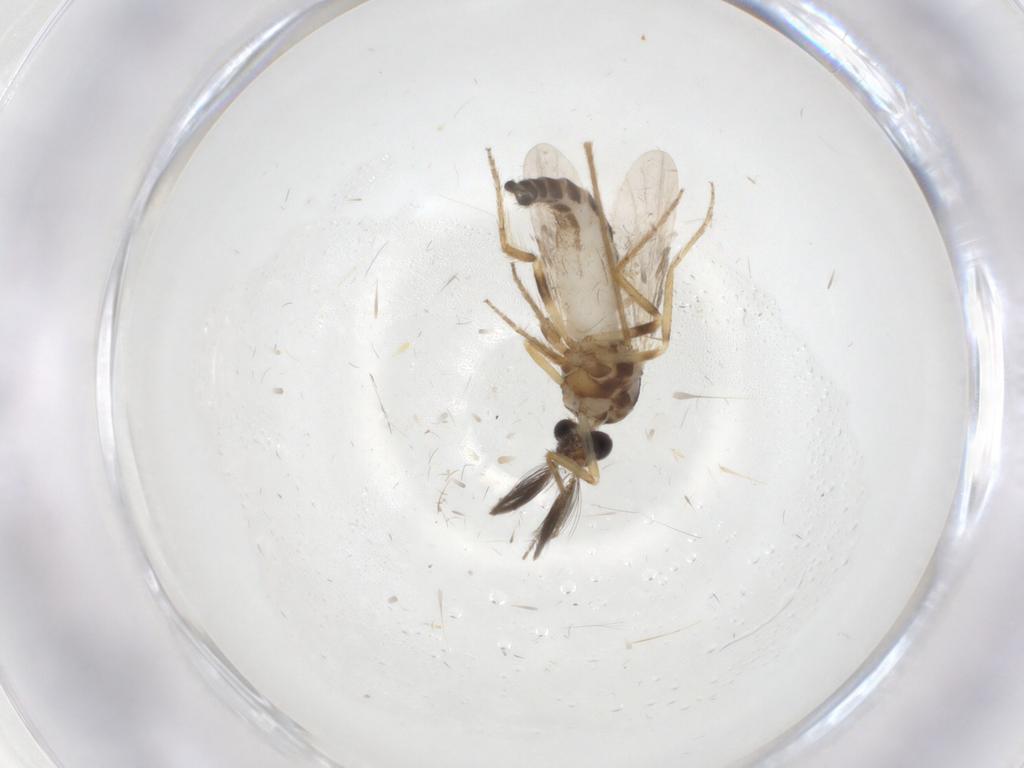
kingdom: Animalia
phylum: Arthropoda
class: Insecta
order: Diptera
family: Ceratopogonidae
